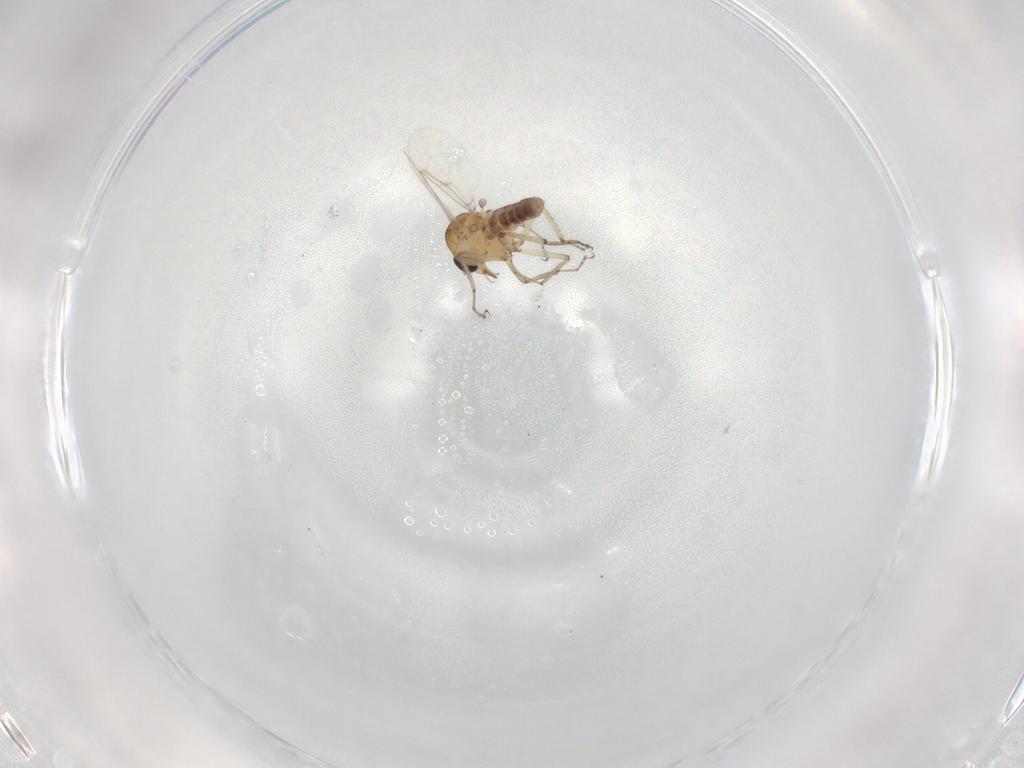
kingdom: Animalia
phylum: Arthropoda
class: Insecta
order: Diptera
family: Ceratopogonidae
